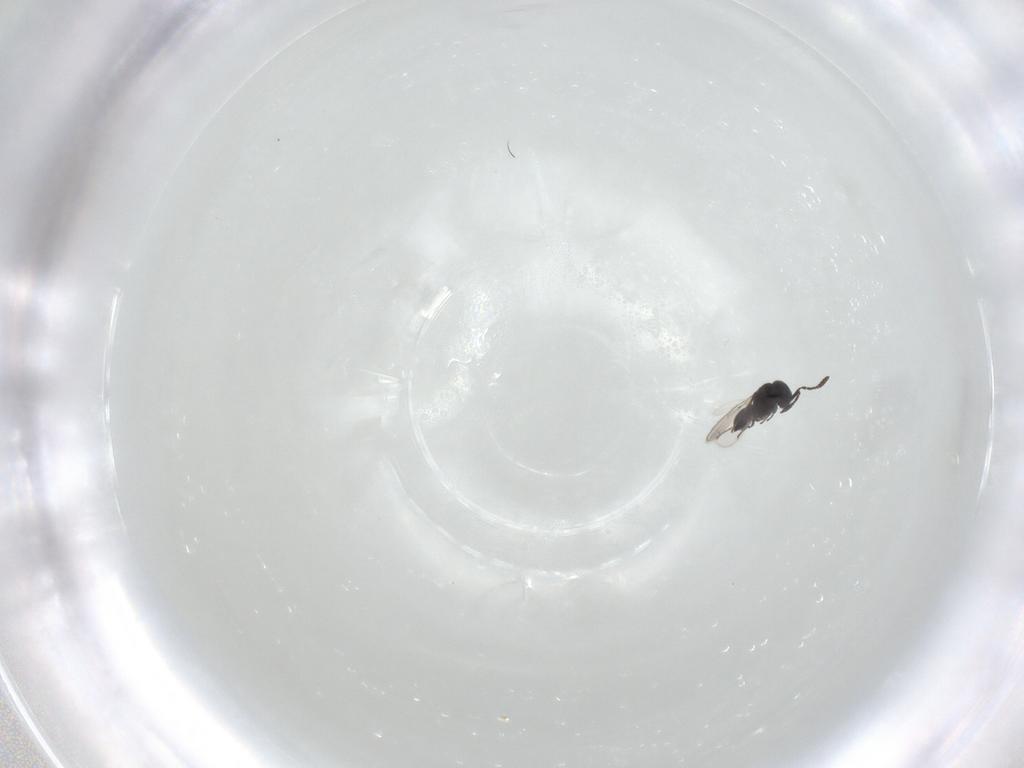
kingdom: Animalia
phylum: Arthropoda
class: Insecta
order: Hymenoptera
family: Scelionidae
